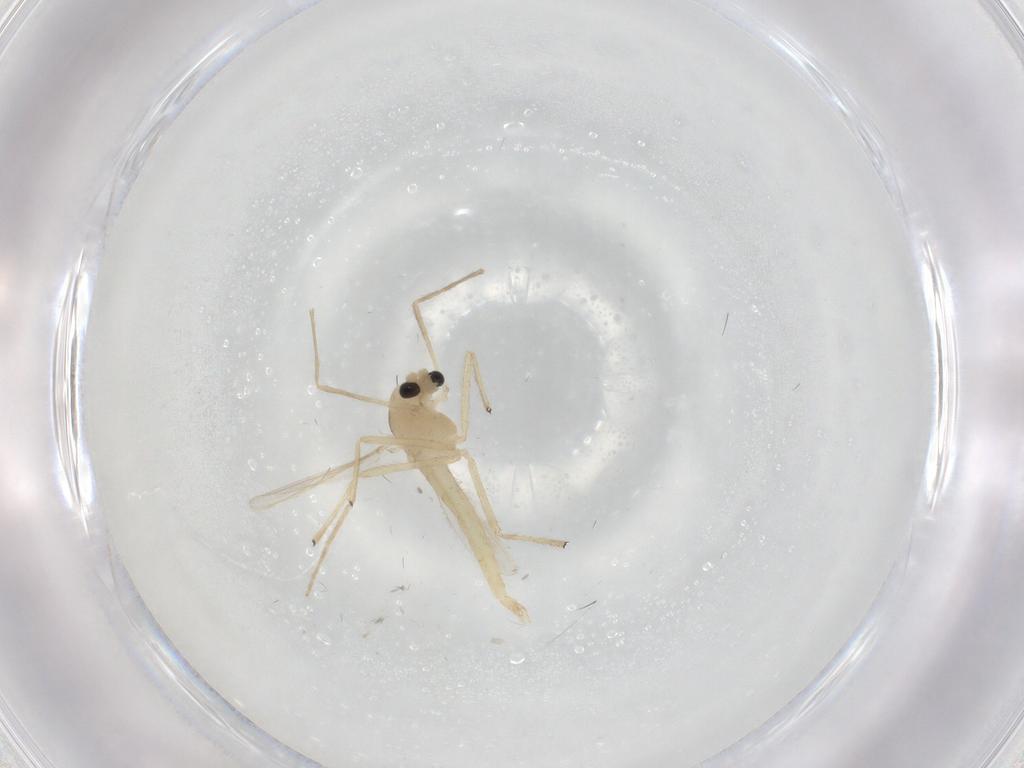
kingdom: Animalia
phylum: Arthropoda
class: Insecta
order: Diptera
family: Chironomidae
